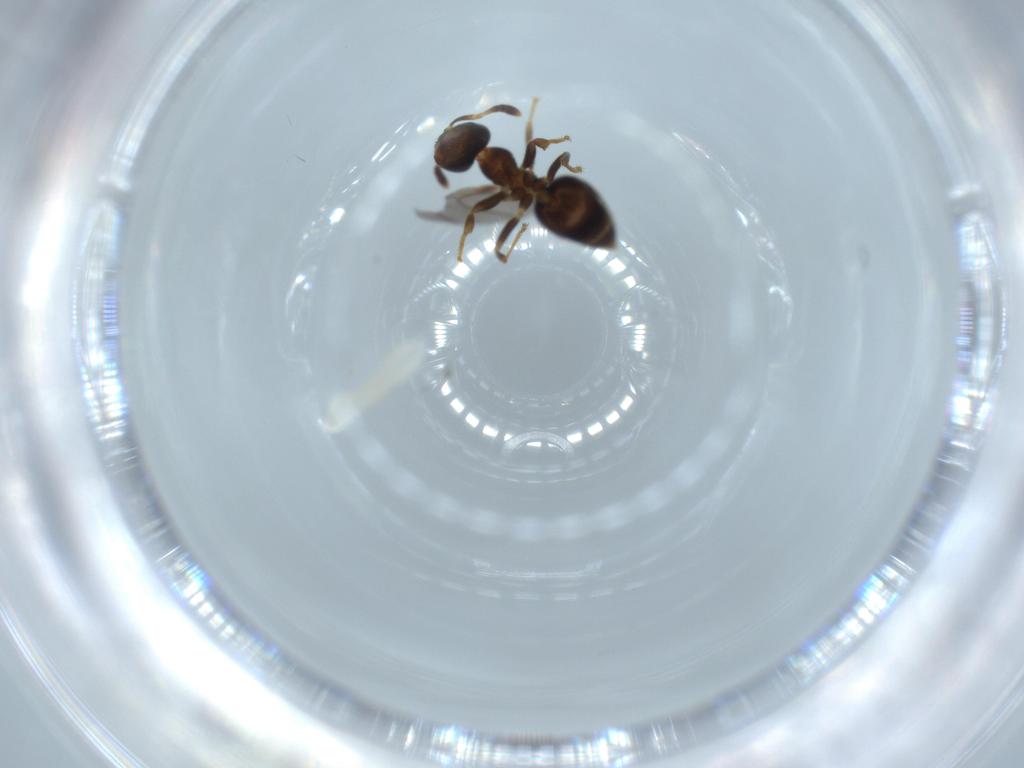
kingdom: Animalia
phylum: Arthropoda
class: Insecta
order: Hymenoptera
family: Formicidae
